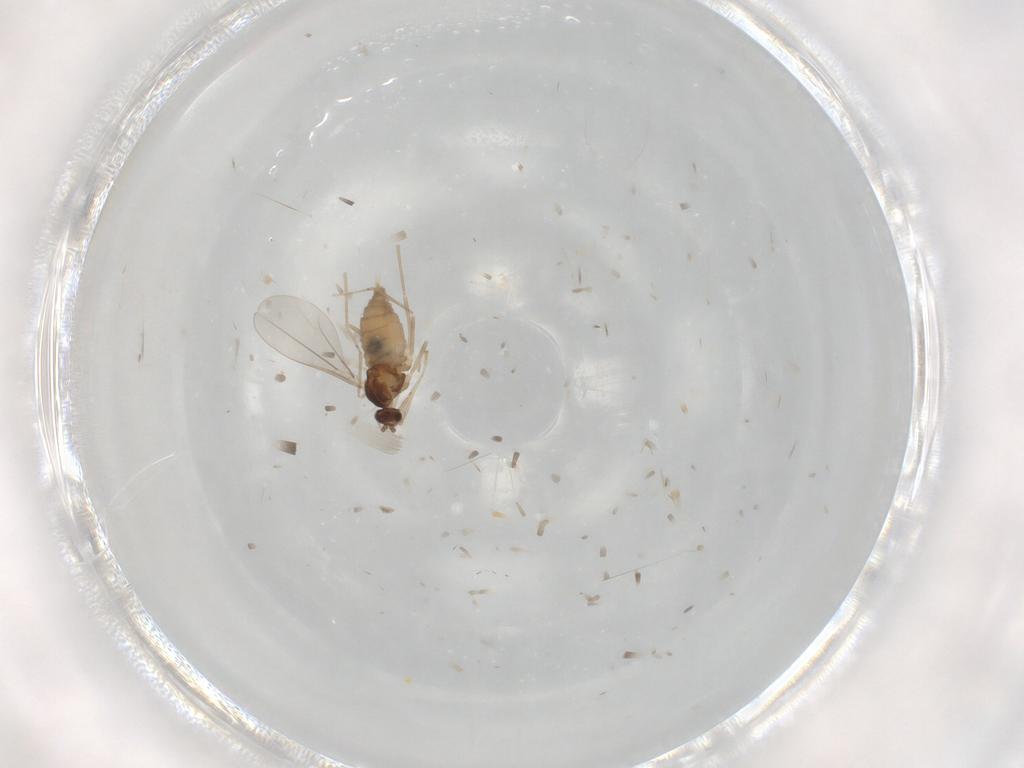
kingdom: Animalia
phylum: Arthropoda
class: Insecta
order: Diptera
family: Cecidomyiidae
